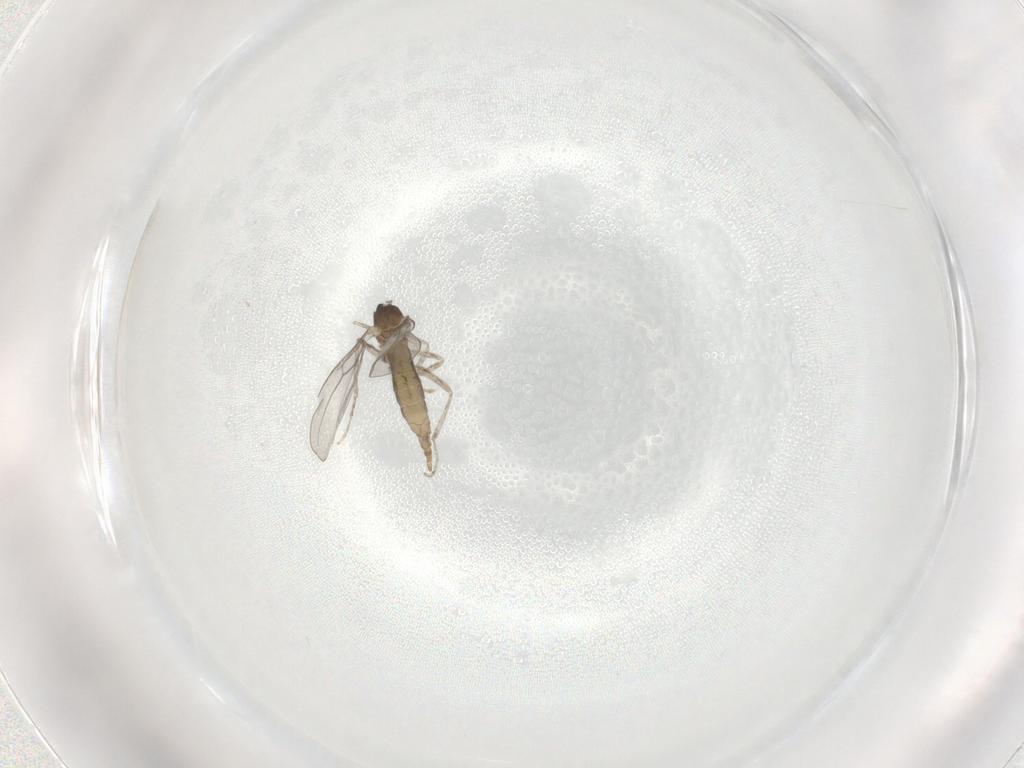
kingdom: Animalia
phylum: Arthropoda
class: Insecta
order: Diptera
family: Cecidomyiidae
